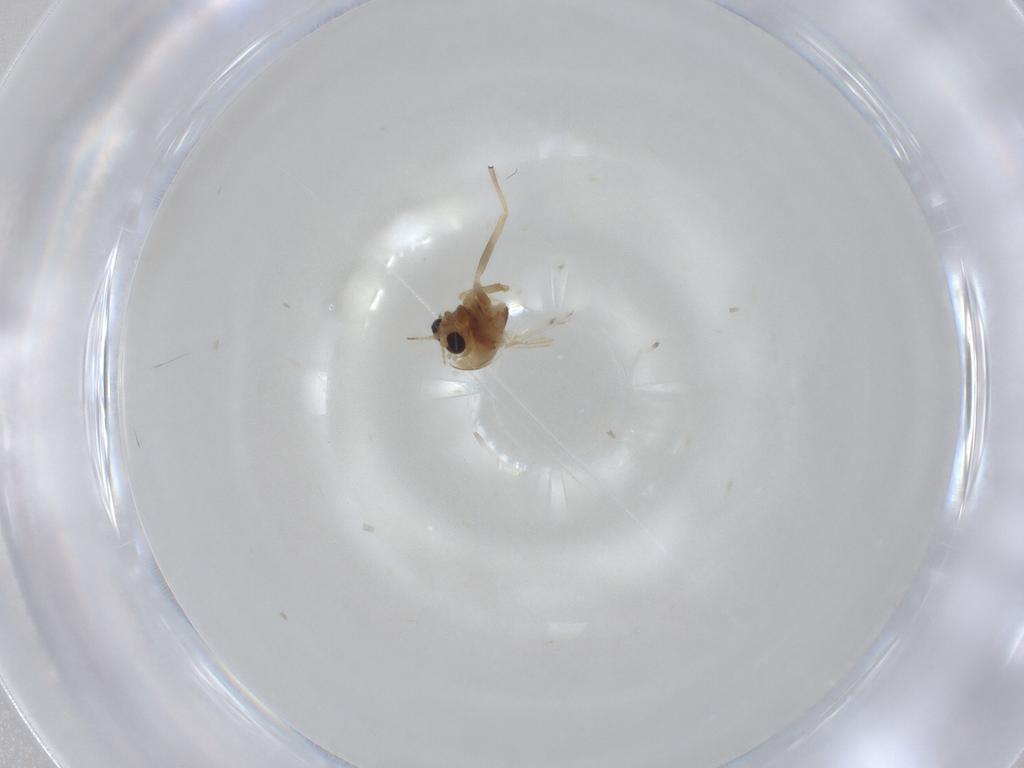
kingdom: Animalia
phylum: Arthropoda
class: Insecta
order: Diptera
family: Chironomidae
